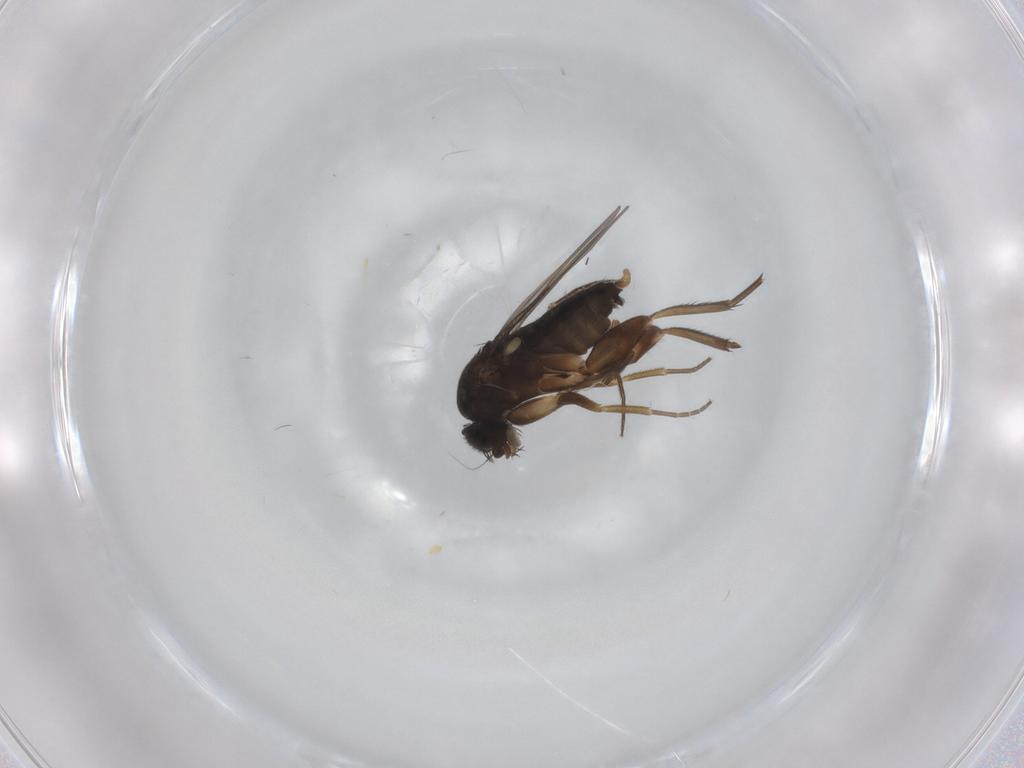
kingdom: Animalia
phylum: Arthropoda
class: Insecta
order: Diptera
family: Phoridae
